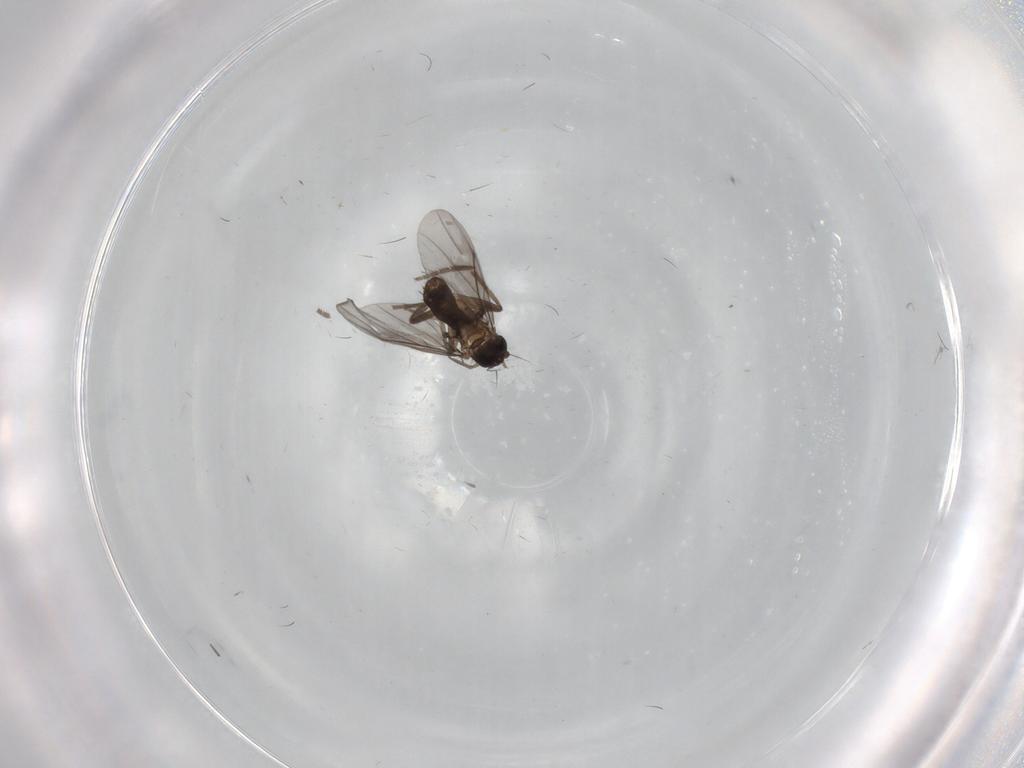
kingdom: Animalia
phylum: Arthropoda
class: Insecta
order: Diptera
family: Phoridae
